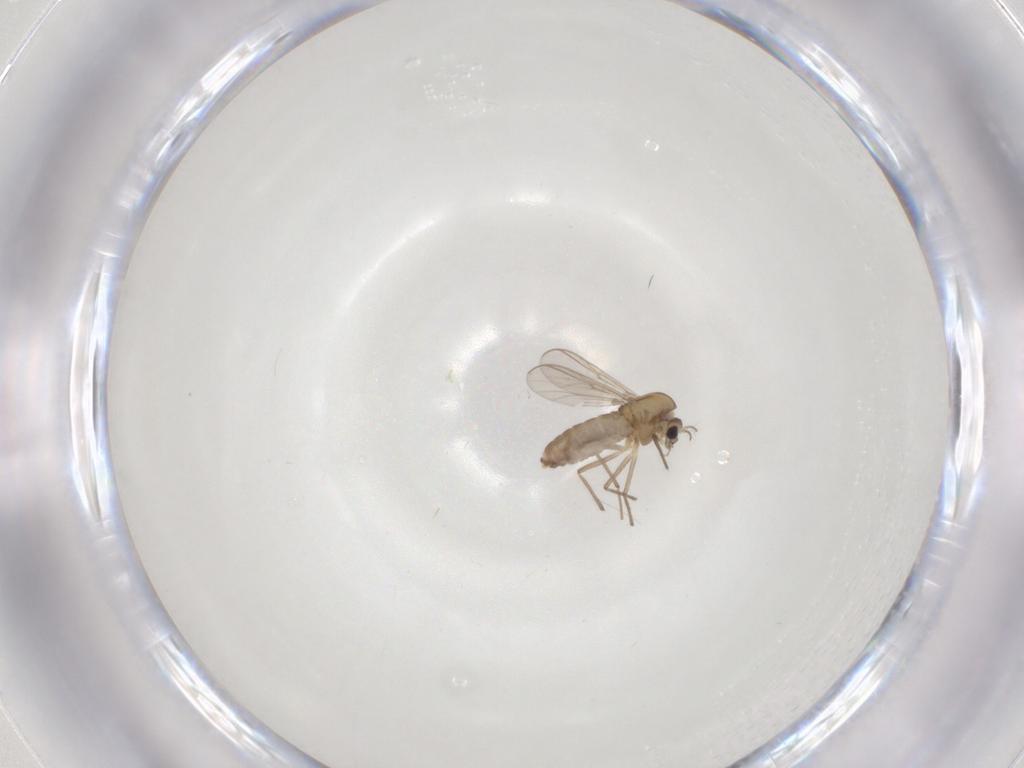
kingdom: Animalia
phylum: Arthropoda
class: Insecta
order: Diptera
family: Chironomidae
